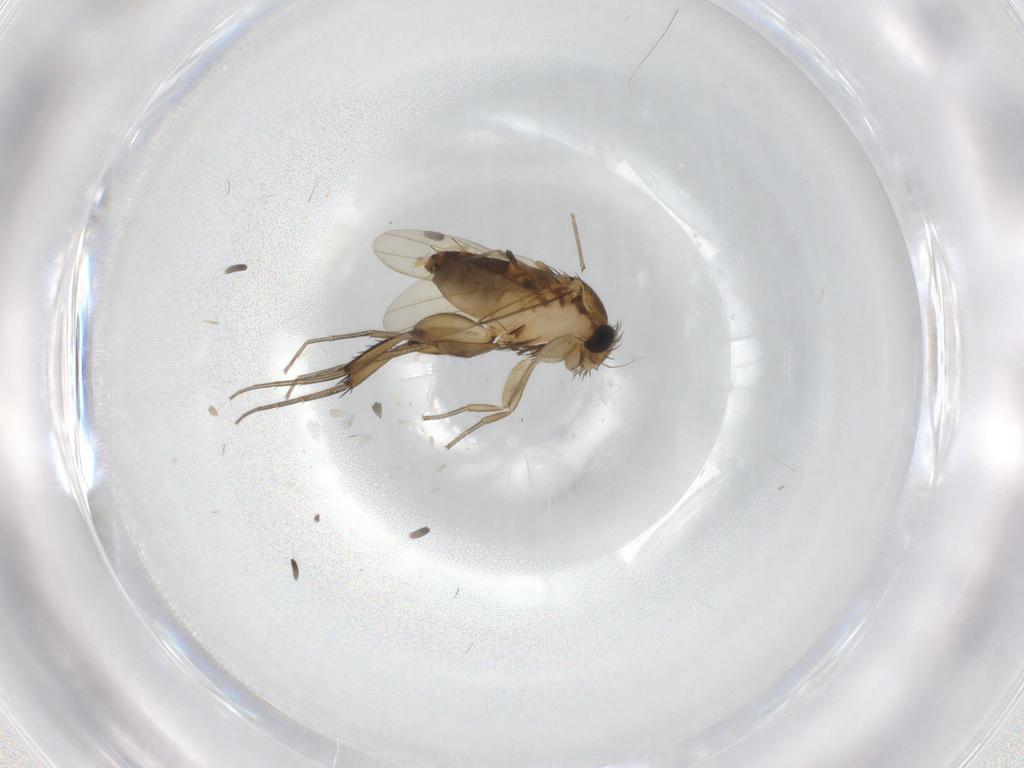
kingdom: Animalia
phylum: Arthropoda
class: Insecta
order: Diptera
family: Phoridae
